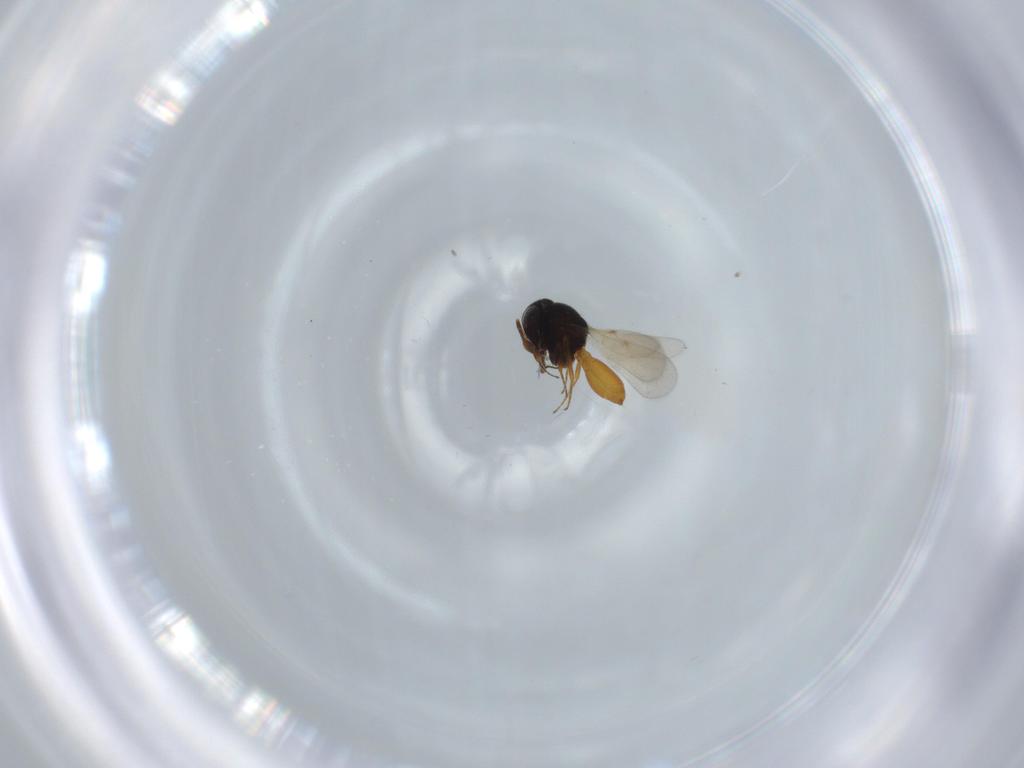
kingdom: Animalia
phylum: Arthropoda
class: Insecta
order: Hymenoptera
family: Scelionidae
